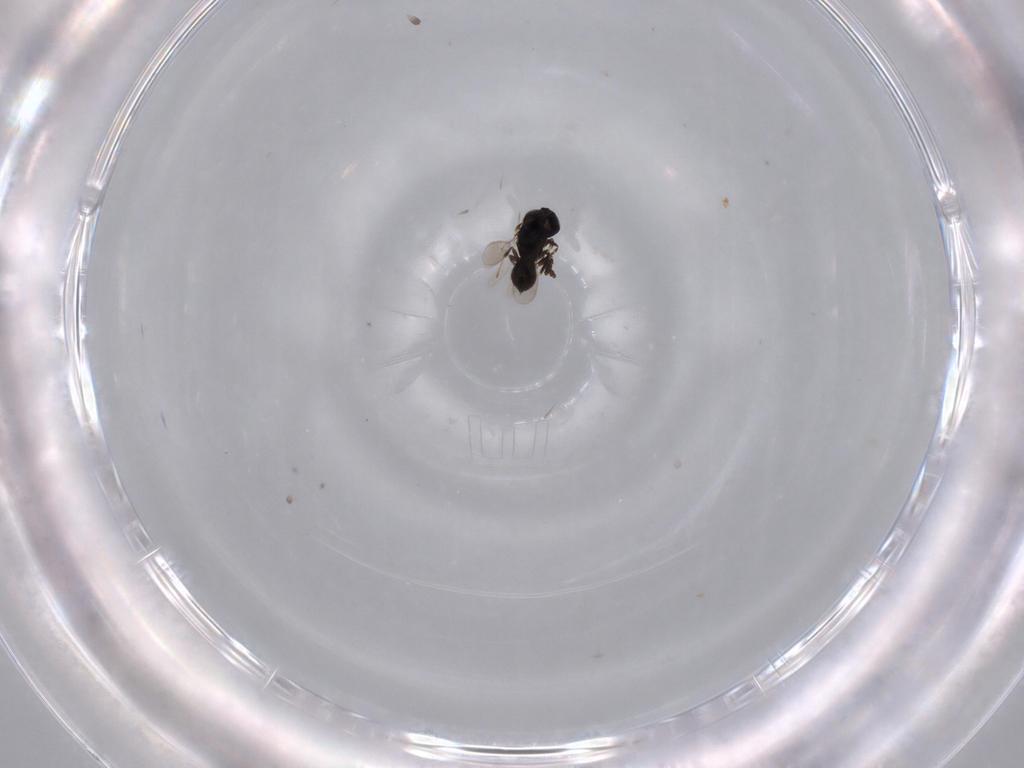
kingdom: Animalia
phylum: Arthropoda
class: Insecta
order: Hymenoptera
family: Scelionidae
